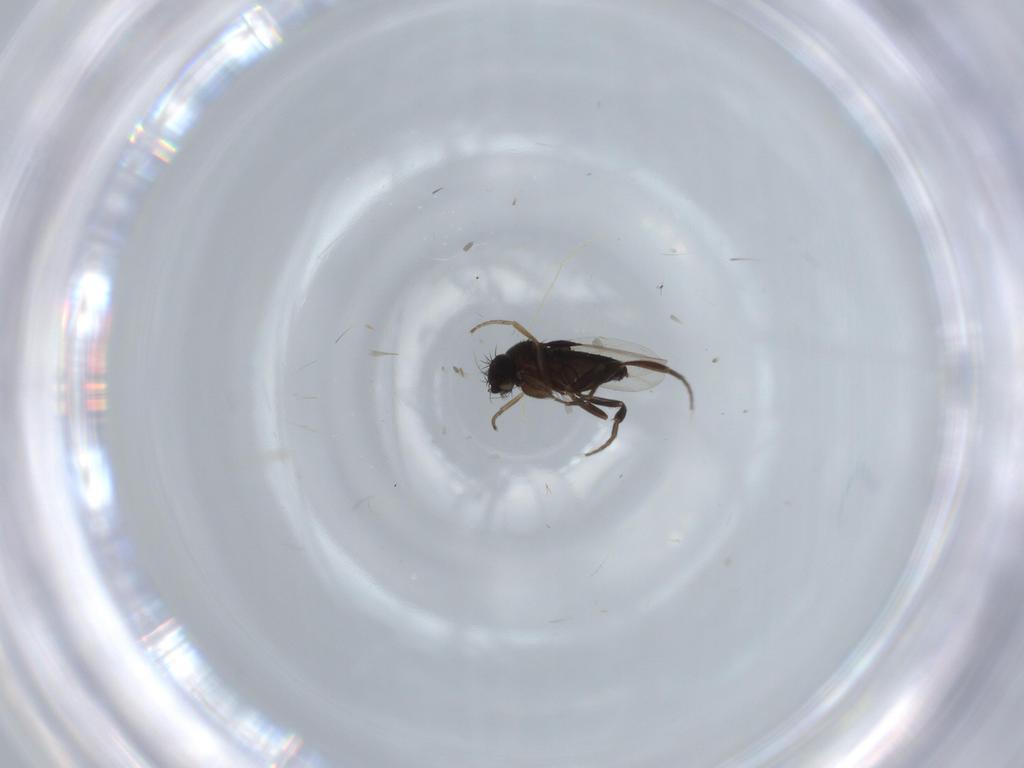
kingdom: Animalia
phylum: Arthropoda
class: Insecta
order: Diptera
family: Phoridae
